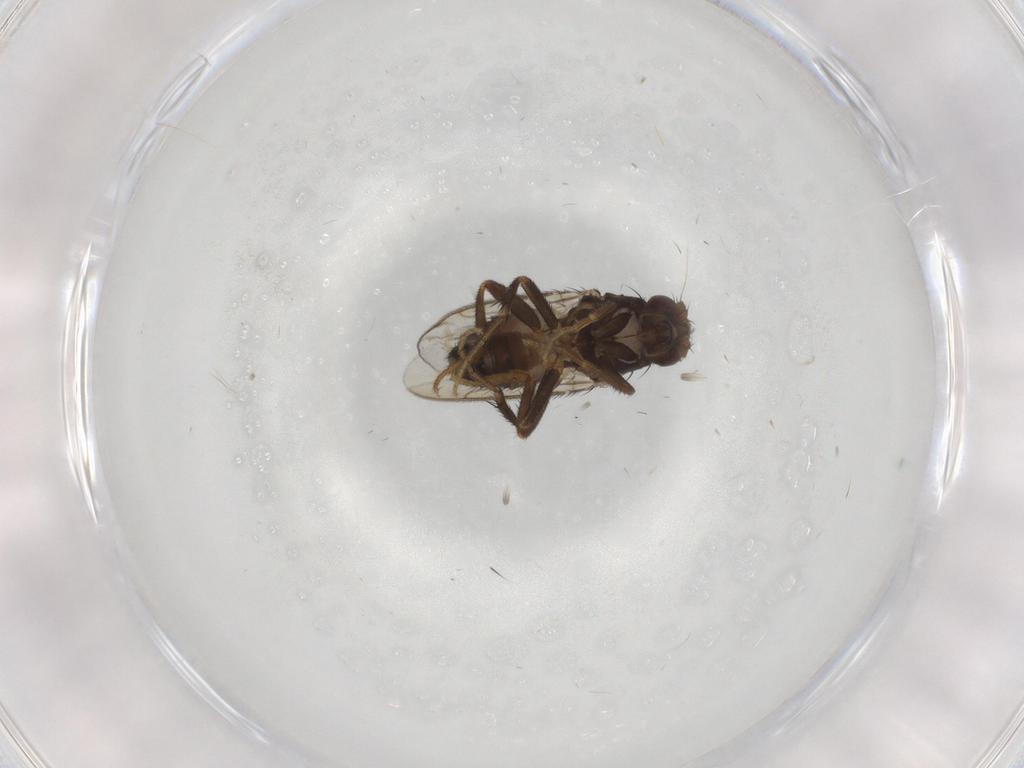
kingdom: Animalia
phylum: Arthropoda
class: Insecta
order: Diptera
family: Sphaeroceridae
